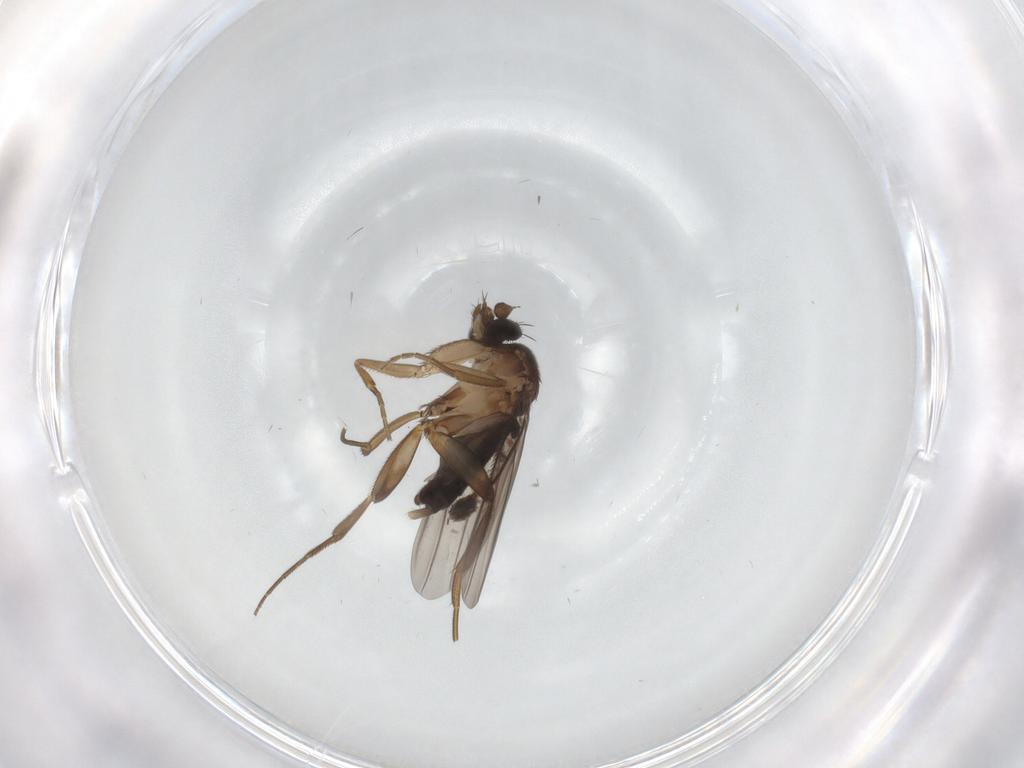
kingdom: Animalia
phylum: Arthropoda
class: Insecta
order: Diptera
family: Phoridae
